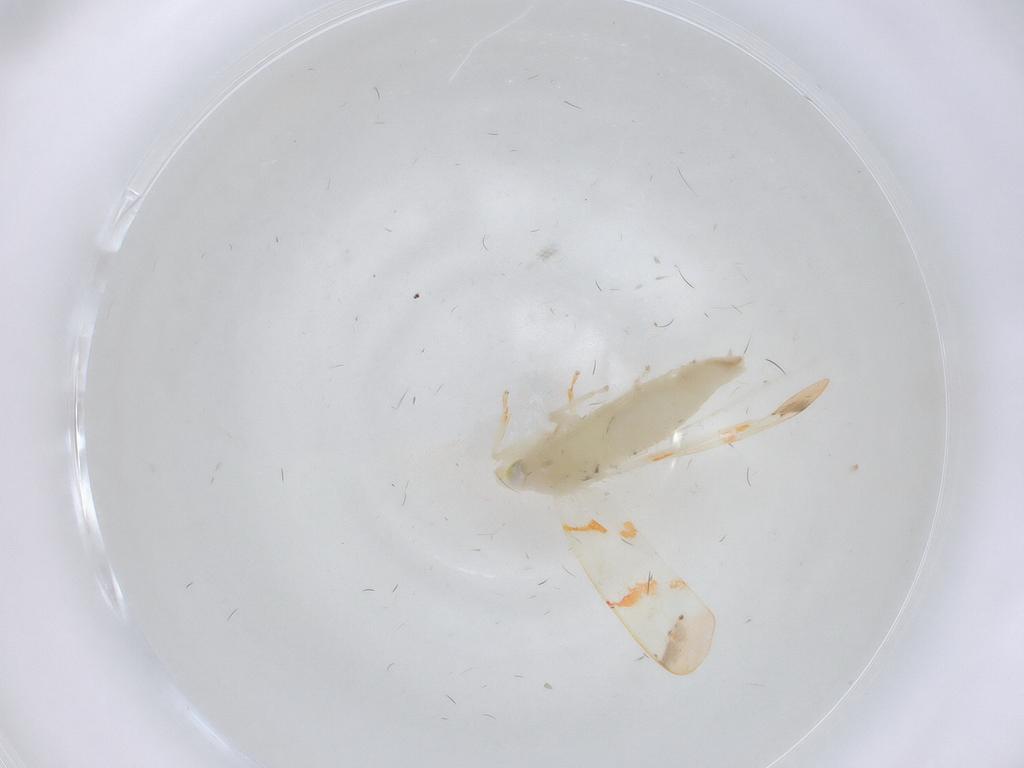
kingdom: Animalia
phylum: Arthropoda
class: Insecta
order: Hemiptera
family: Cicadellidae
